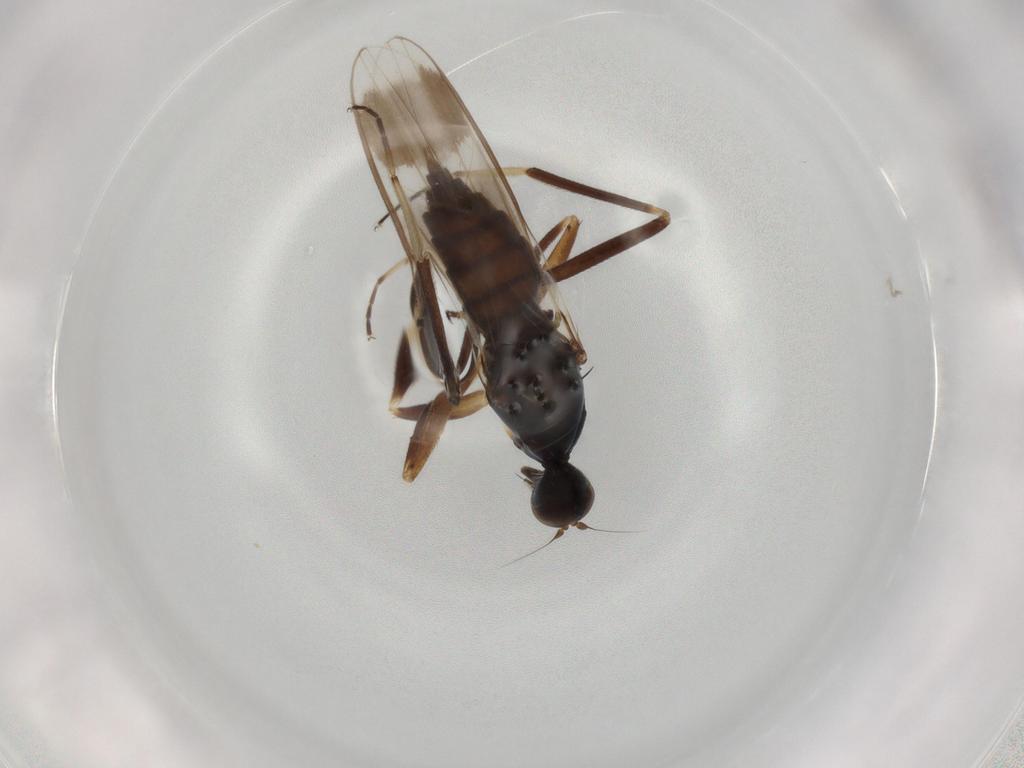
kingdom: Animalia
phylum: Arthropoda
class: Insecta
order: Diptera
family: Hybotidae
